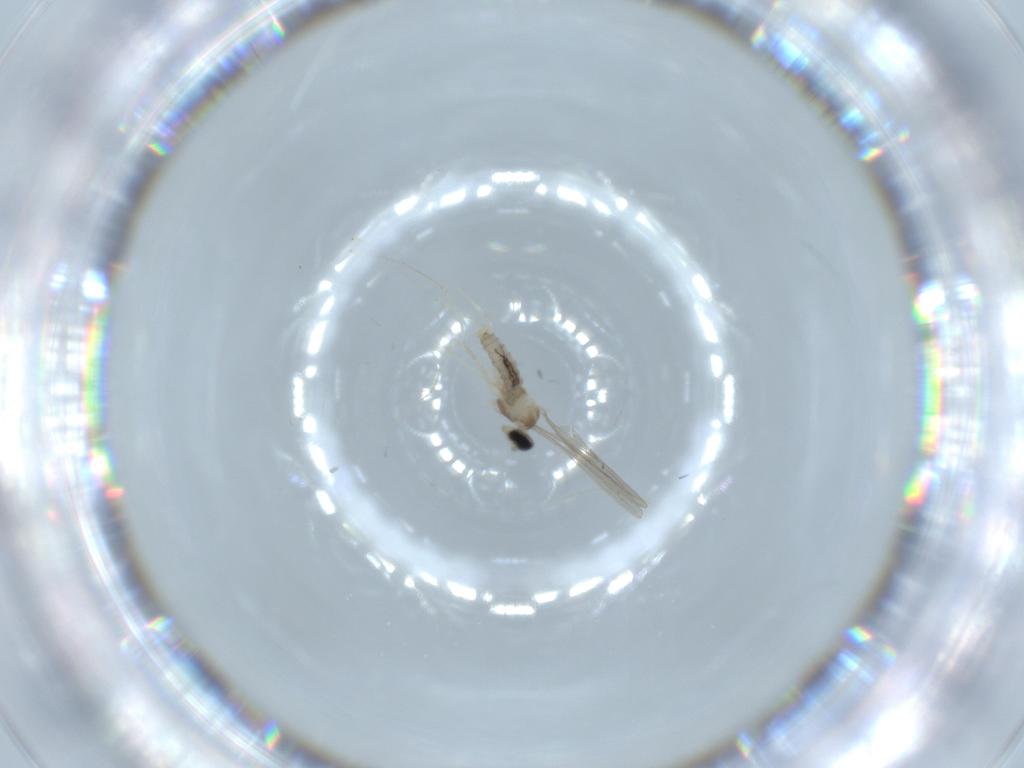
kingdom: Animalia
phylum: Arthropoda
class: Insecta
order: Diptera
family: Cecidomyiidae
